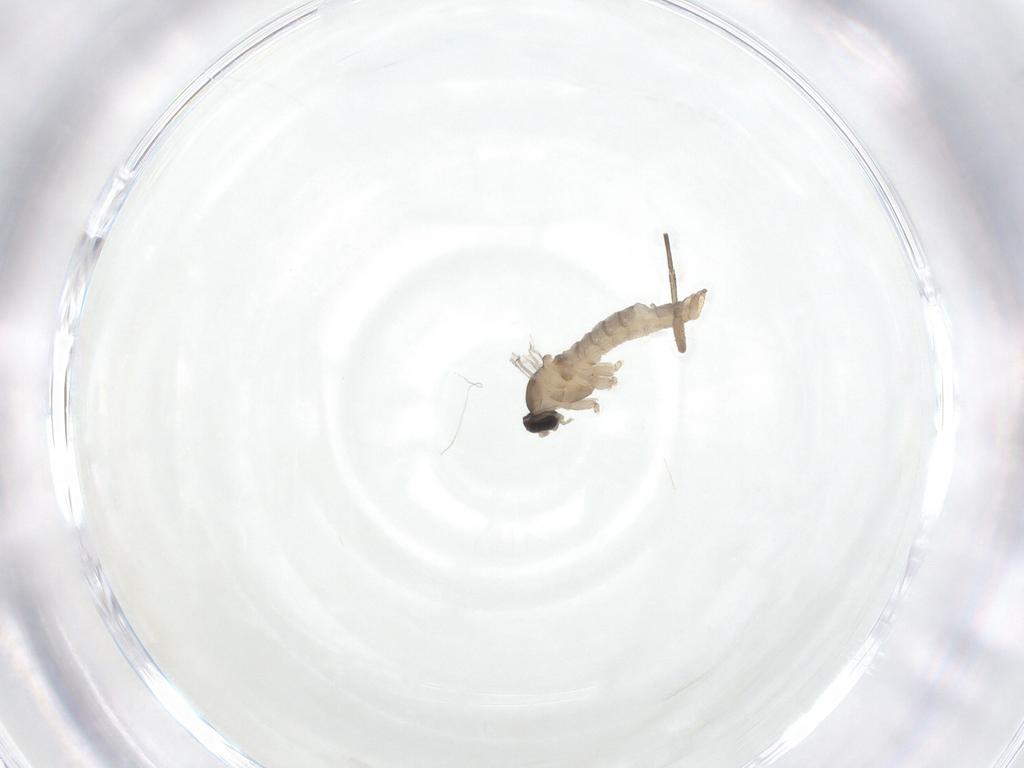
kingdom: Animalia
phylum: Arthropoda
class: Insecta
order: Diptera
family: Cecidomyiidae
